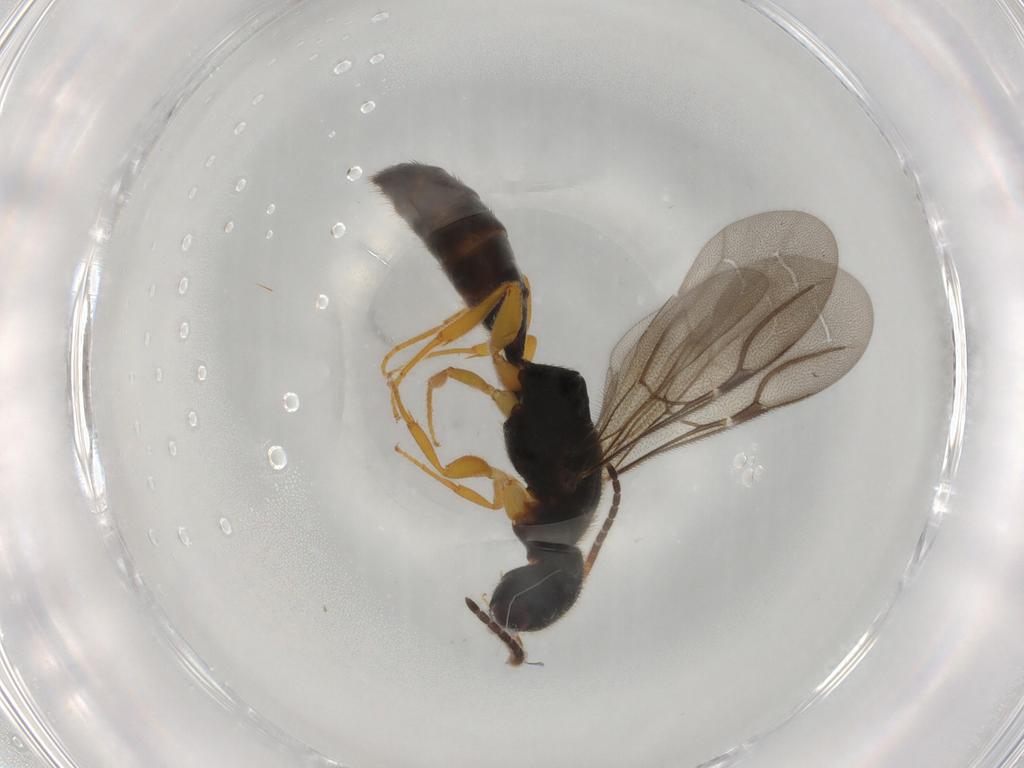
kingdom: Animalia
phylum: Arthropoda
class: Insecta
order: Hymenoptera
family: Bethylidae
